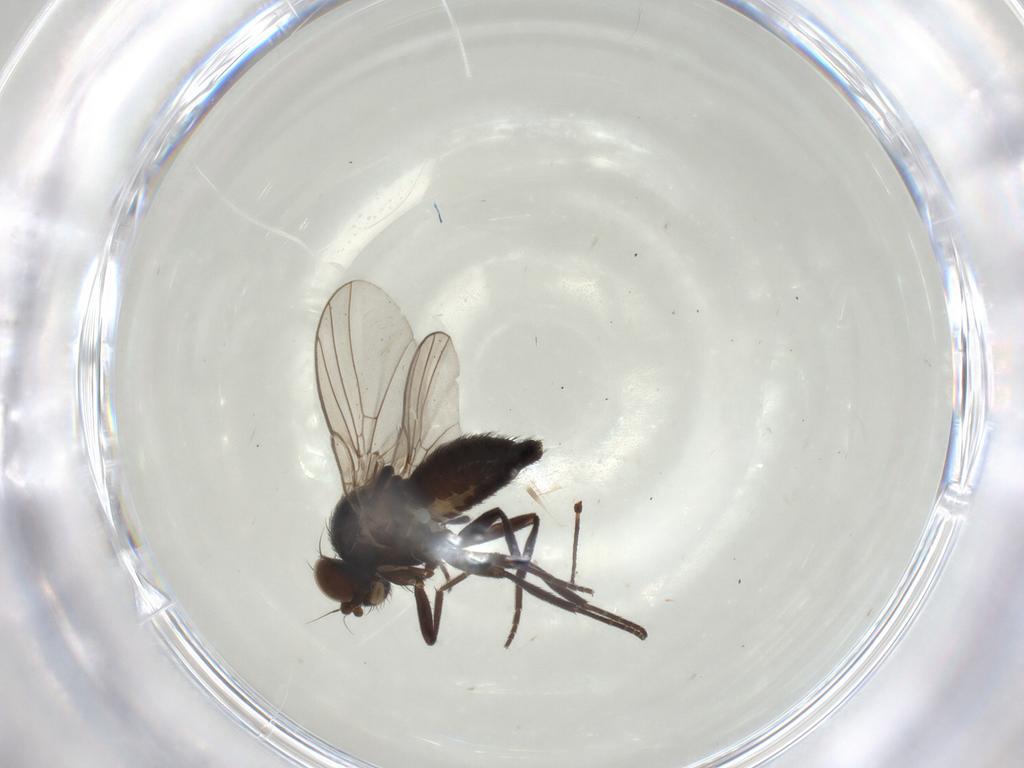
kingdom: Animalia
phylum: Arthropoda
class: Insecta
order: Diptera
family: Agromyzidae
